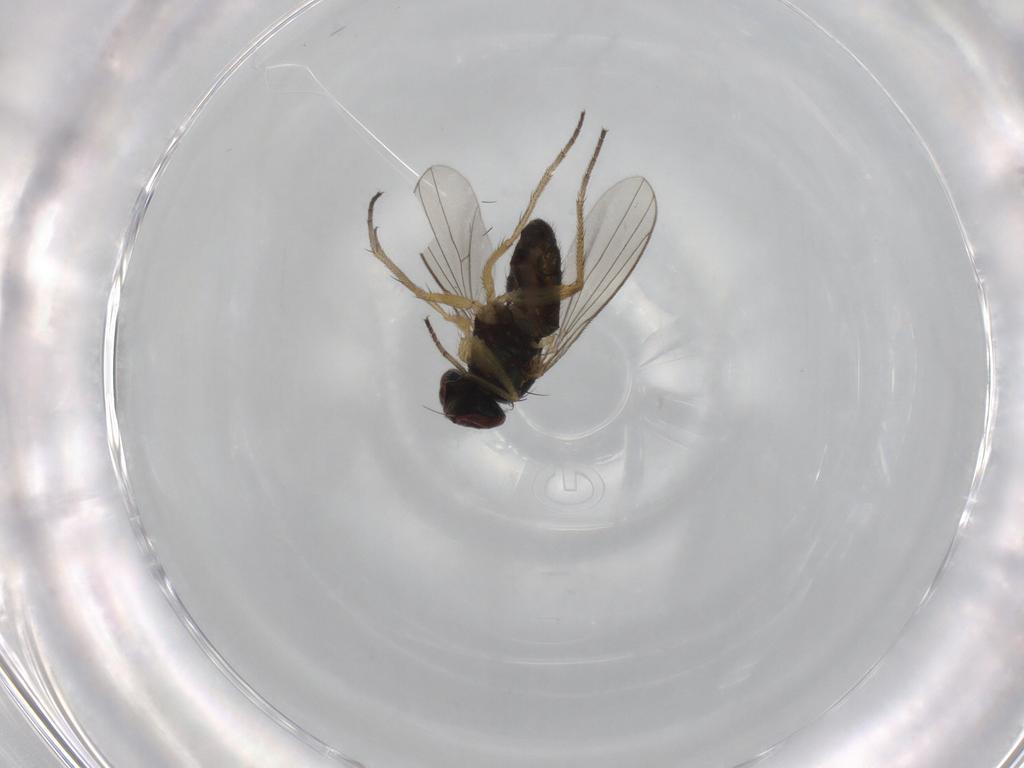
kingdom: Animalia
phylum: Arthropoda
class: Insecta
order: Diptera
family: Dolichopodidae
